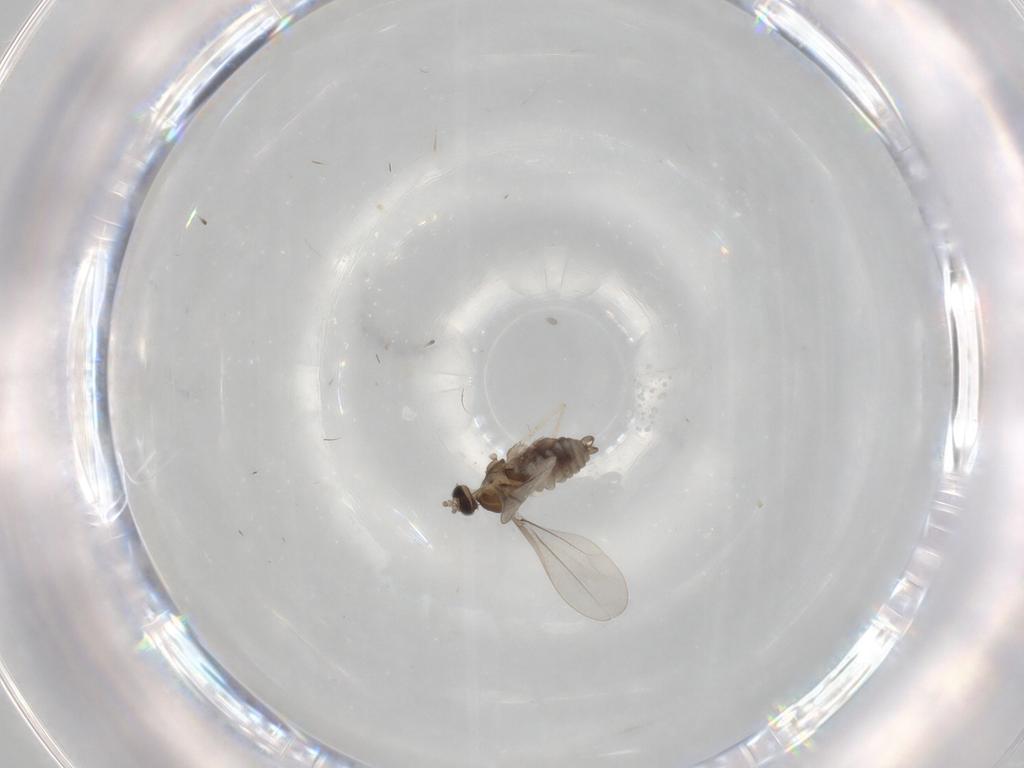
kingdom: Animalia
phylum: Arthropoda
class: Insecta
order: Diptera
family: Cecidomyiidae
